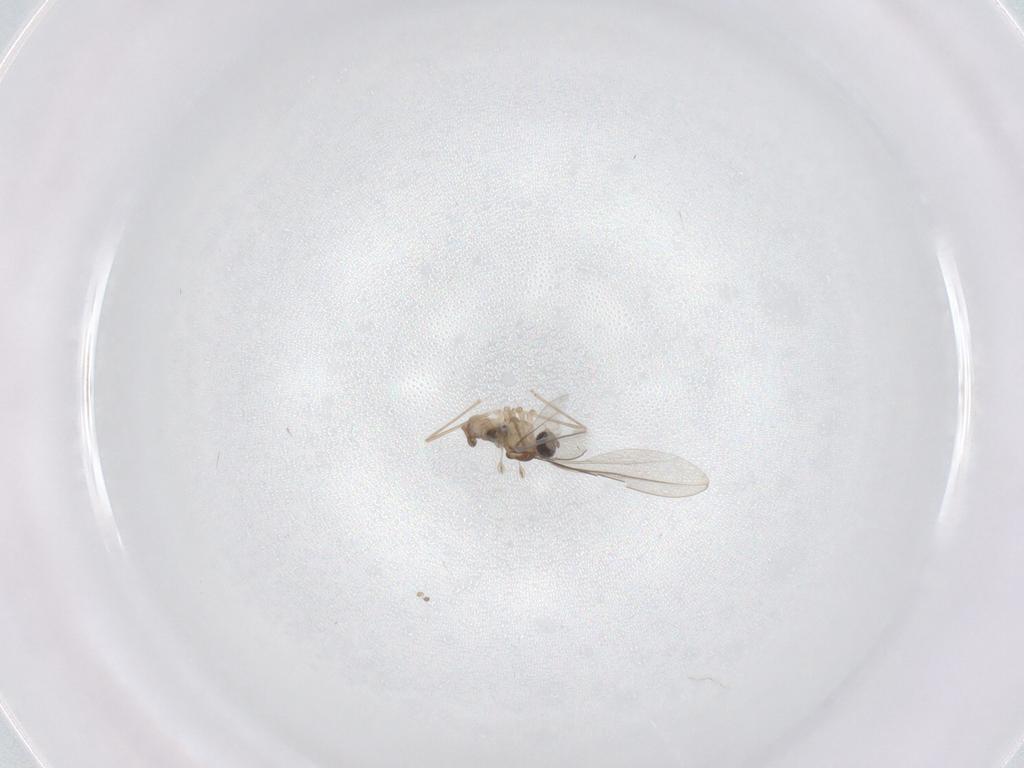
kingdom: Animalia
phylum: Arthropoda
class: Insecta
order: Diptera
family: Cecidomyiidae
